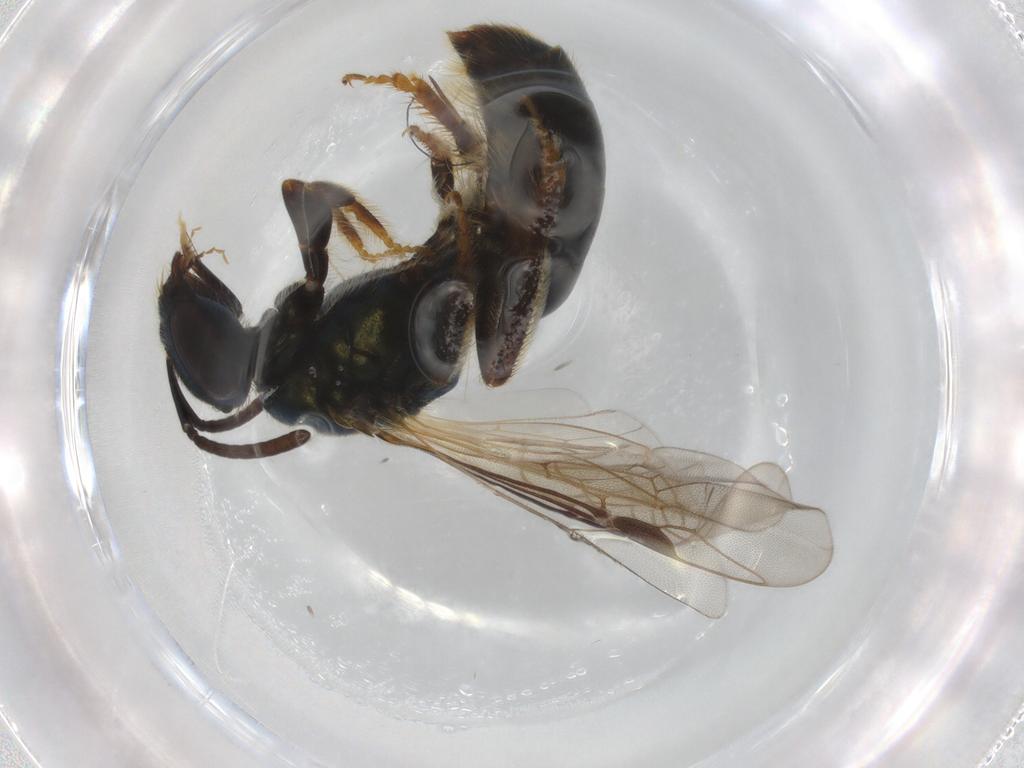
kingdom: Animalia
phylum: Arthropoda
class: Insecta
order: Hymenoptera
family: Halictidae
